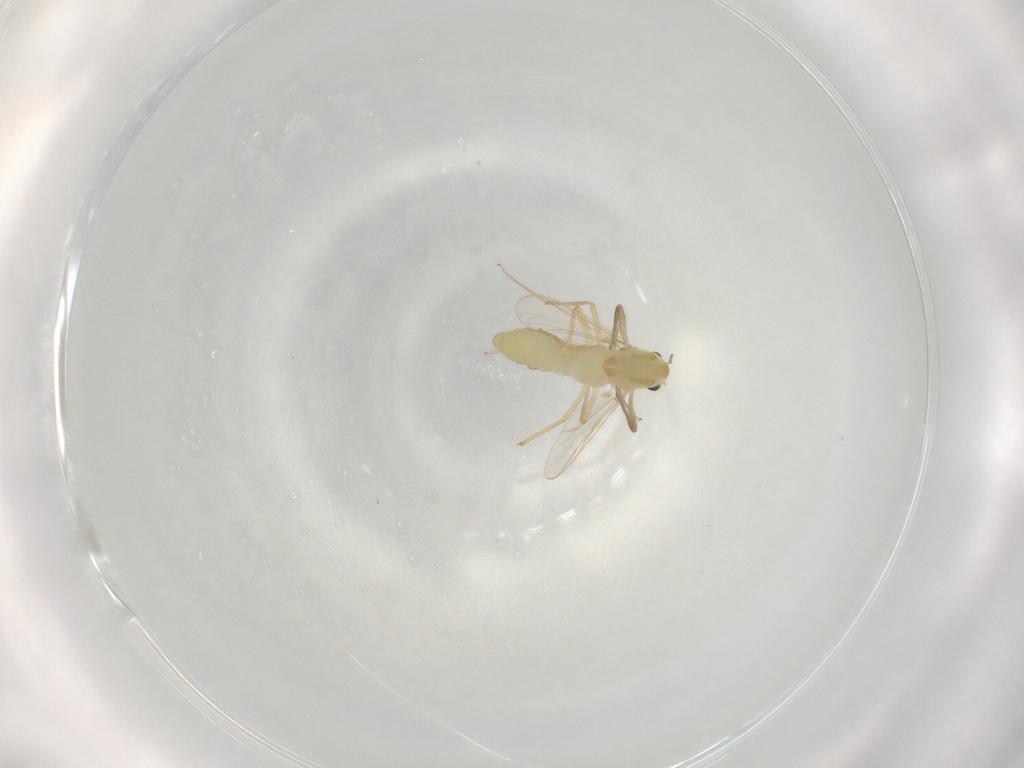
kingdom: Animalia
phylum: Arthropoda
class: Insecta
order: Diptera
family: Chironomidae
